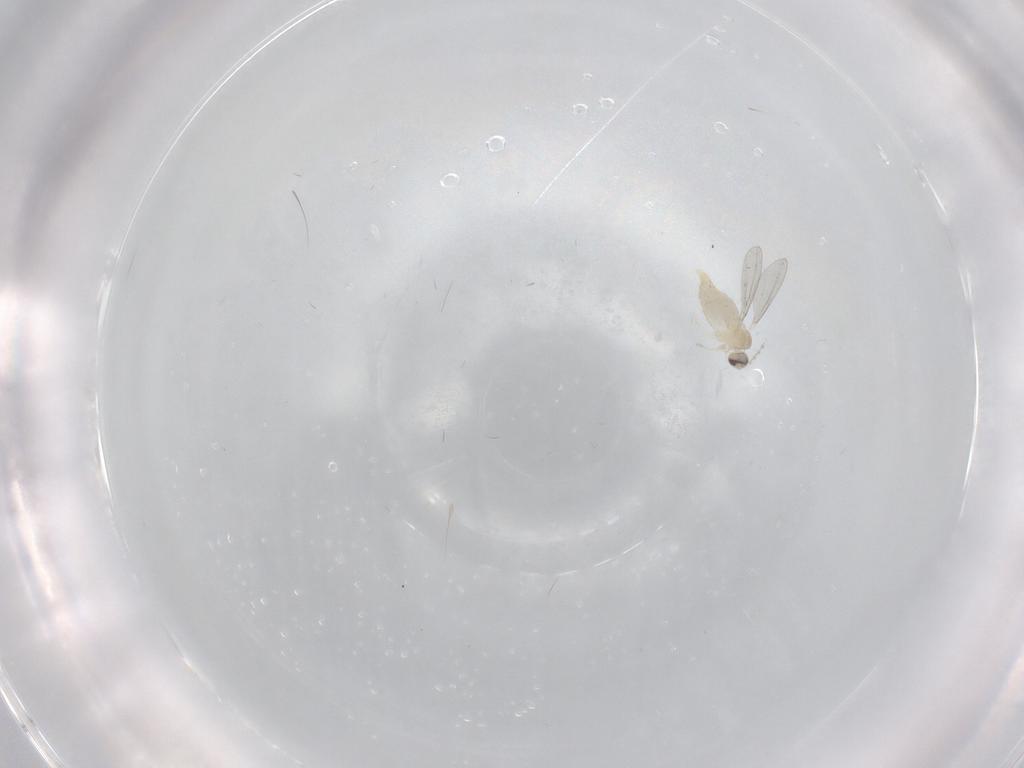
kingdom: Animalia
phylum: Arthropoda
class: Insecta
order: Diptera
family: Cecidomyiidae
